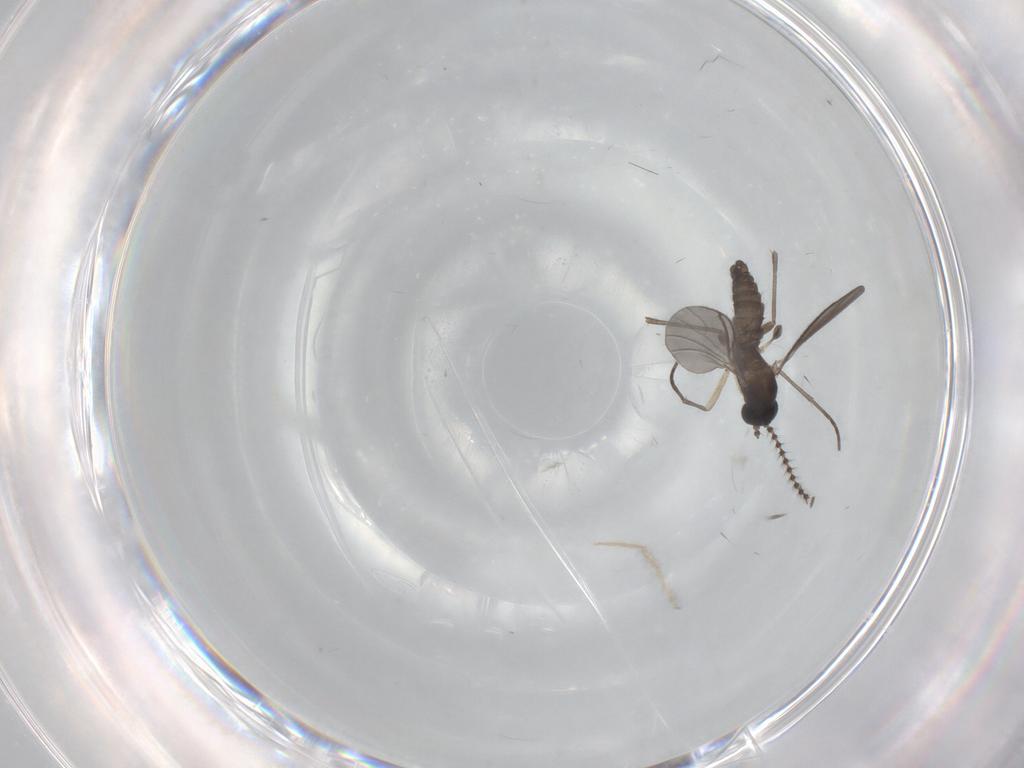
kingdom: Animalia
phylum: Arthropoda
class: Insecta
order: Diptera
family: Sciaridae
